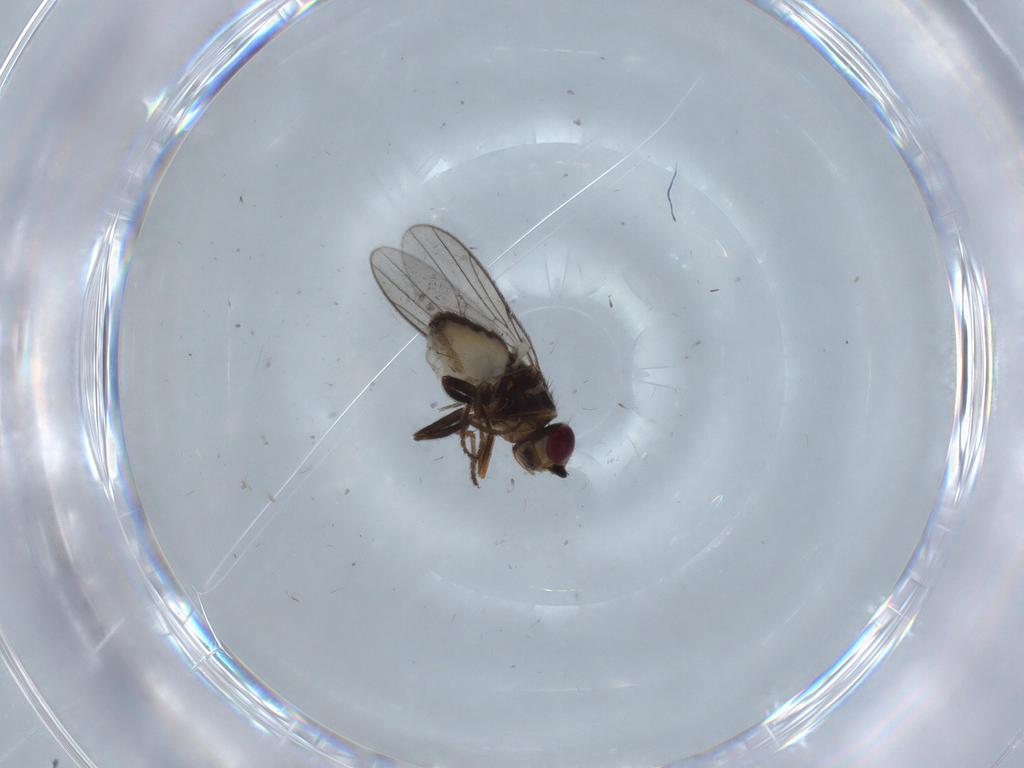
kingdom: Animalia
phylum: Arthropoda
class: Insecta
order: Diptera
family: Chloropidae
